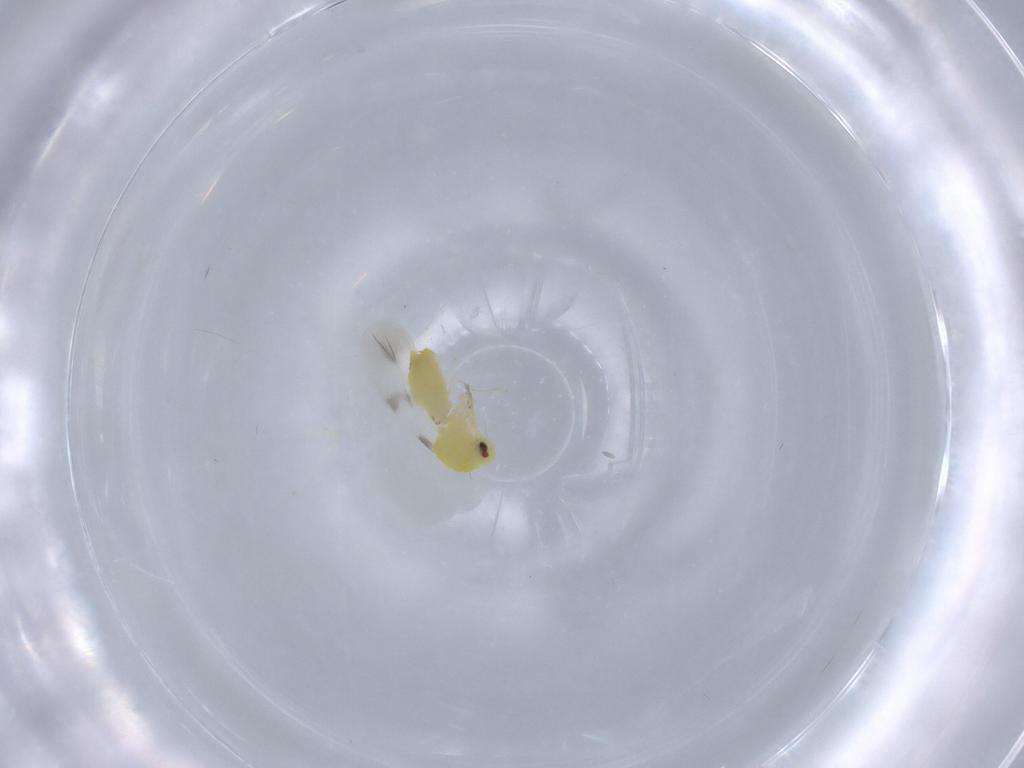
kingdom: Animalia
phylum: Arthropoda
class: Insecta
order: Hemiptera
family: Aleyrodidae
